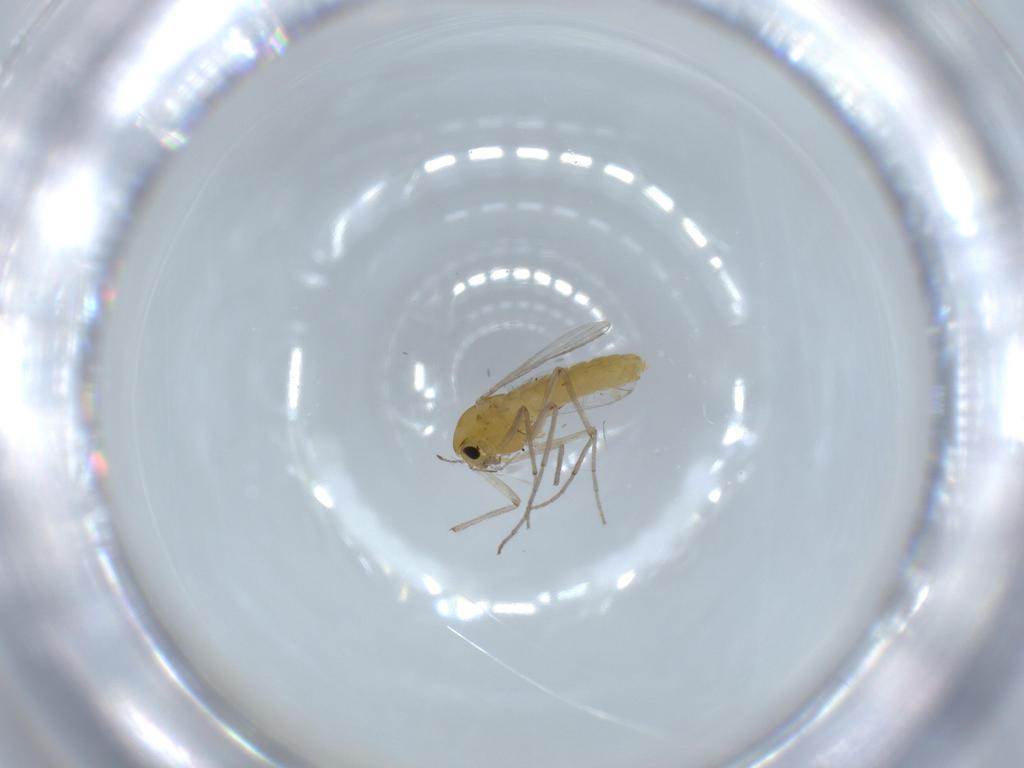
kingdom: Animalia
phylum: Arthropoda
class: Insecta
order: Diptera
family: Chironomidae
